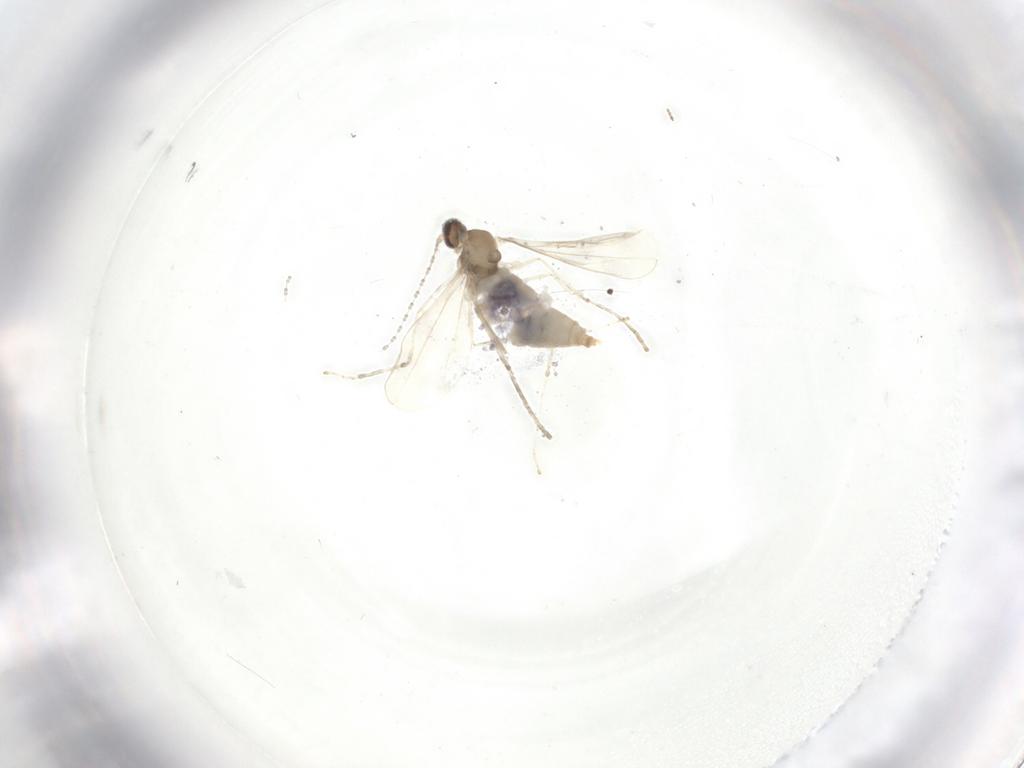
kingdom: Animalia
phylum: Arthropoda
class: Insecta
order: Diptera
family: Cecidomyiidae
